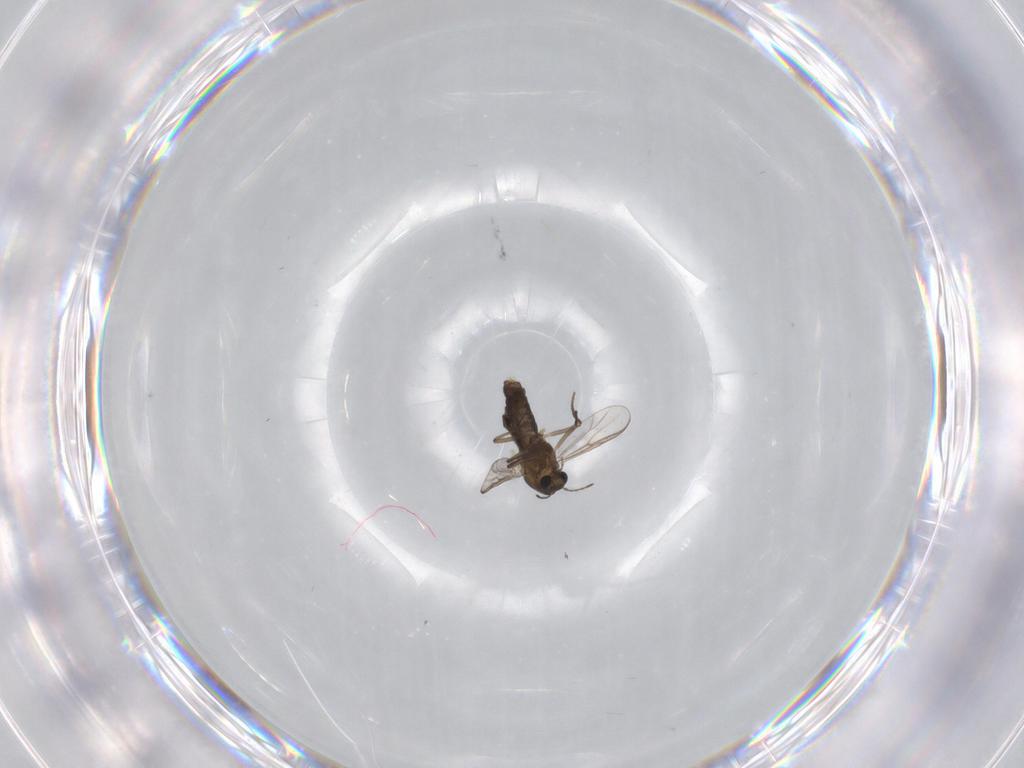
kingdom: Animalia
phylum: Arthropoda
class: Insecta
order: Diptera
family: Chironomidae
